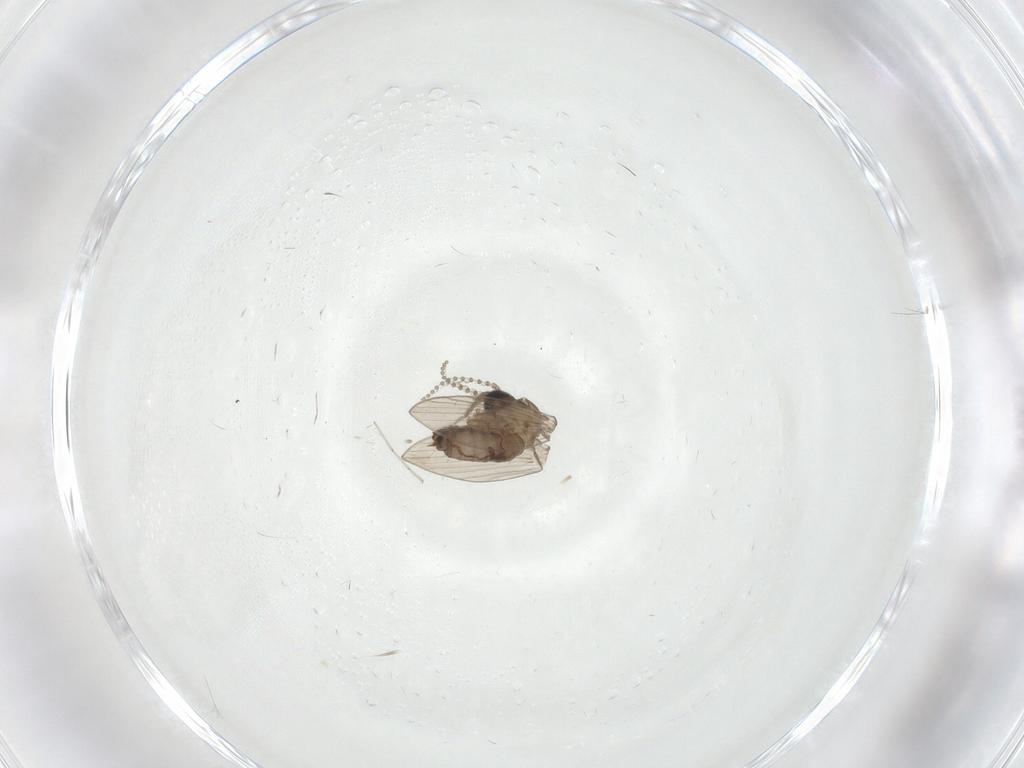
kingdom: Animalia
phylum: Arthropoda
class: Insecta
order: Diptera
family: Psychodidae
